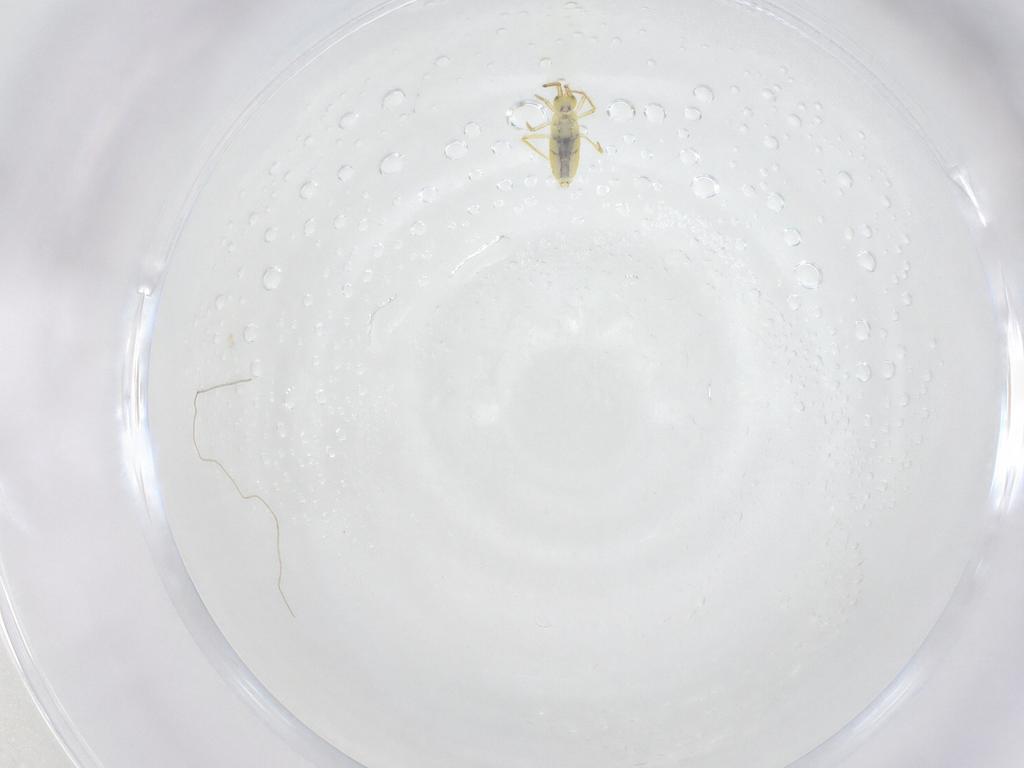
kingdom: Animalia
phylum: Arthropoda
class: Collembola
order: Entomobryomorpha
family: Entomobryidae
